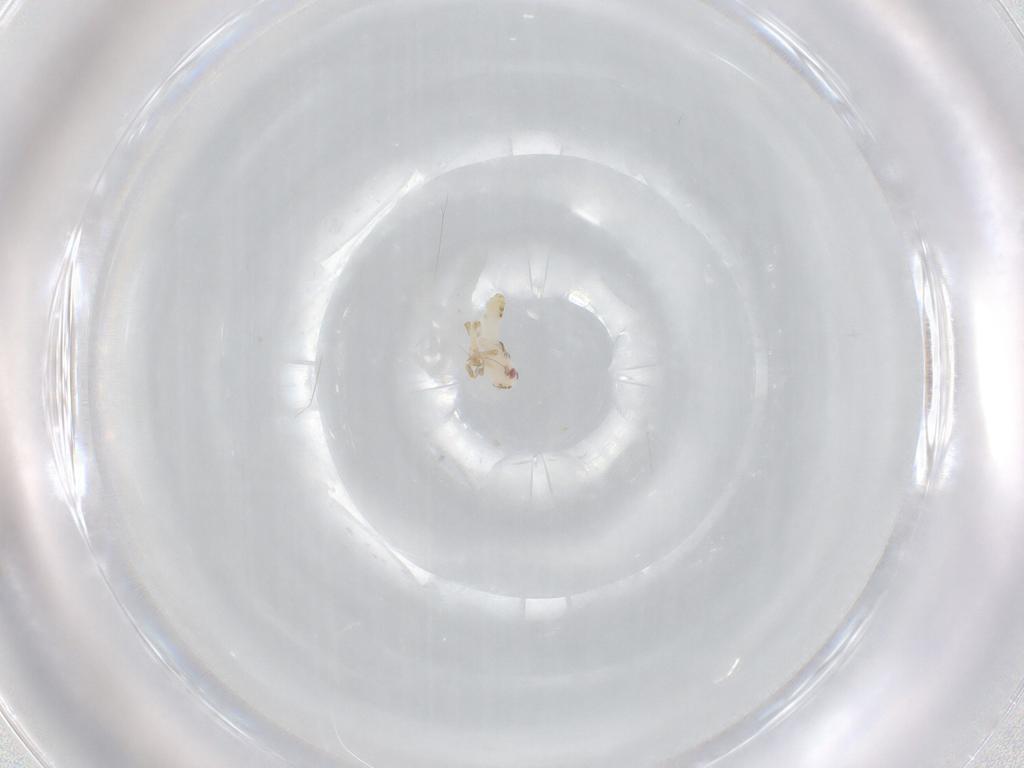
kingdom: Animalia
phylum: Arthropoda
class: Insecta
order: Hemiptera
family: Delphacidae
